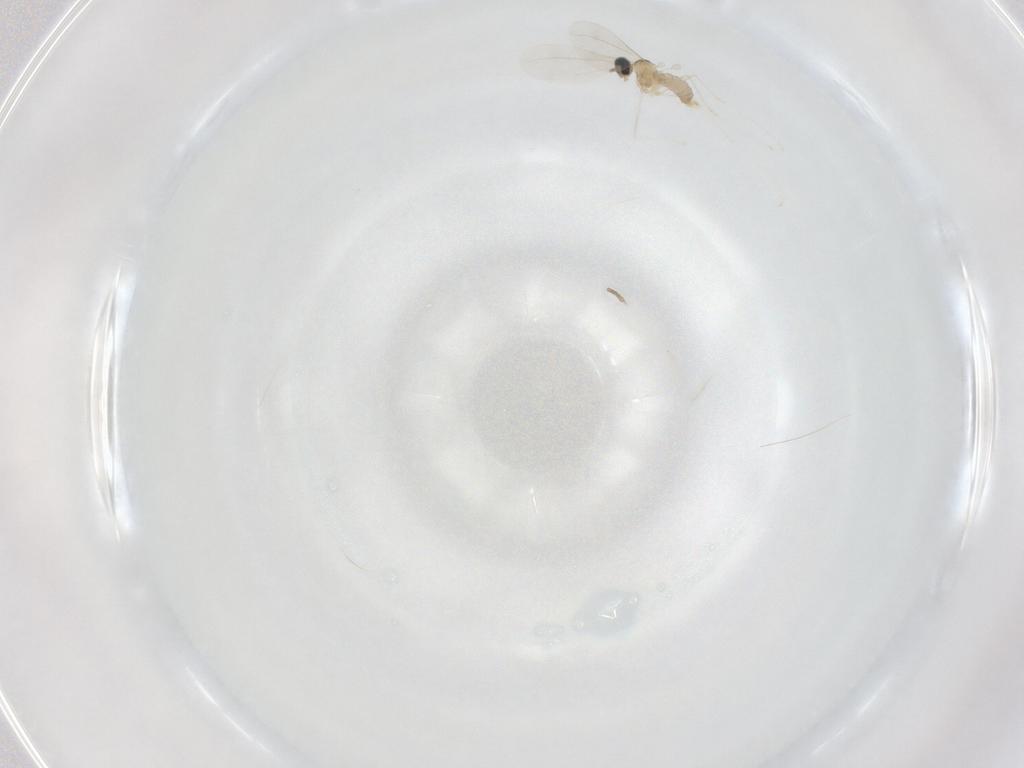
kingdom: Animalia
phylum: Arthropoda
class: Insecta
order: Diptera
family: Cecidomyiidae
